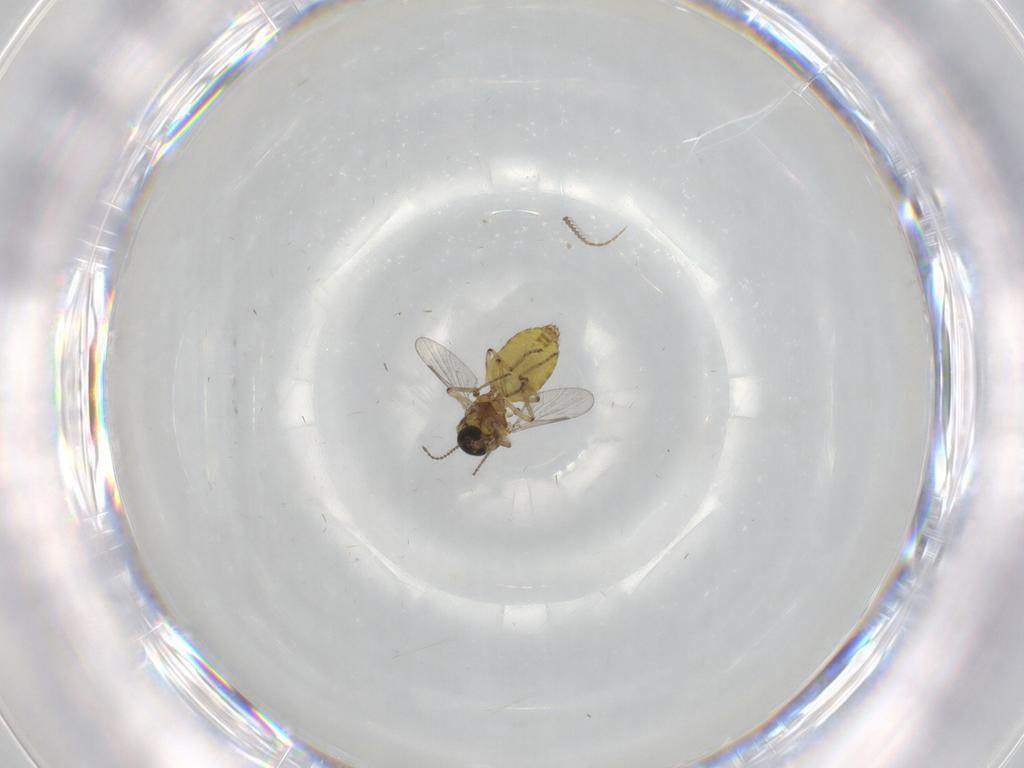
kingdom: Animalia
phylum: Arthropoda
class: Insecta
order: Diptera
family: Ceratopogonidae
